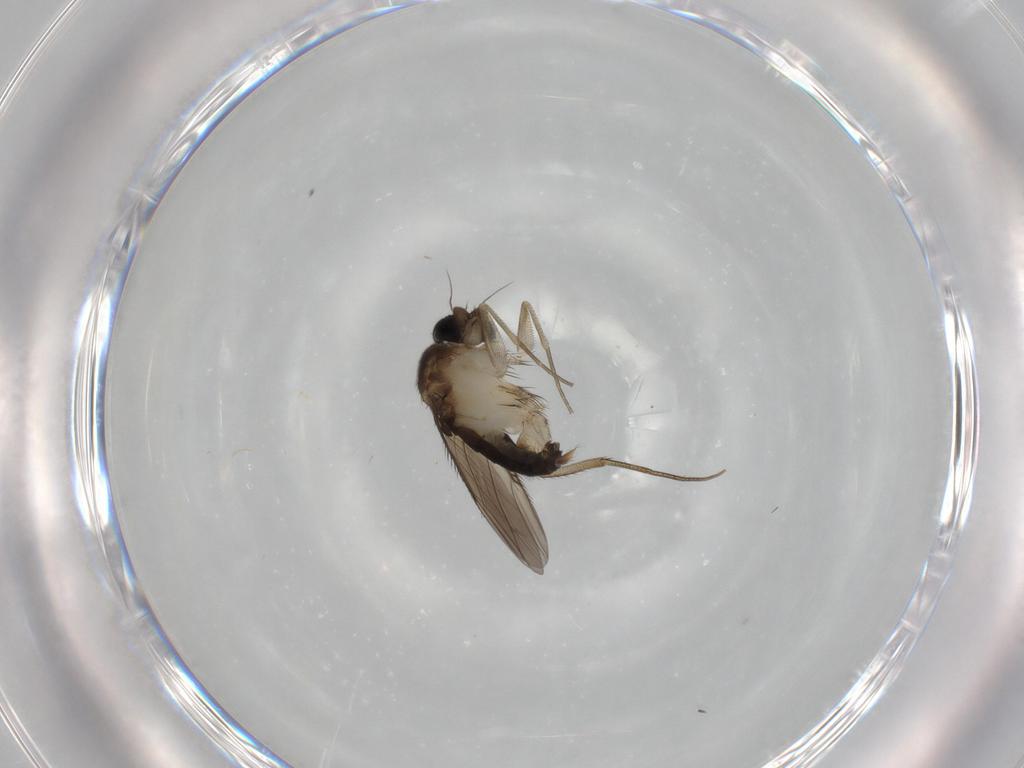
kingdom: Animalia
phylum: Arthropoda
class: Insecta
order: Diptera
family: Phoridae
